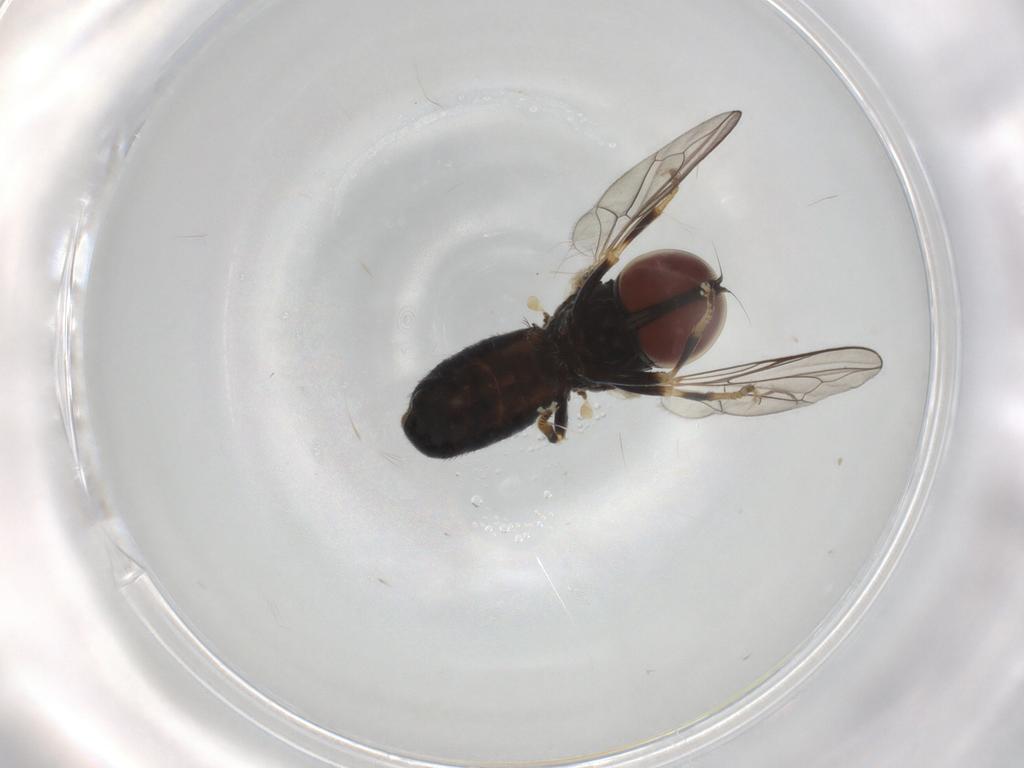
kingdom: Animalia
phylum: Arthropoda
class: Insecta
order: Diptera
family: Pipunculidae
